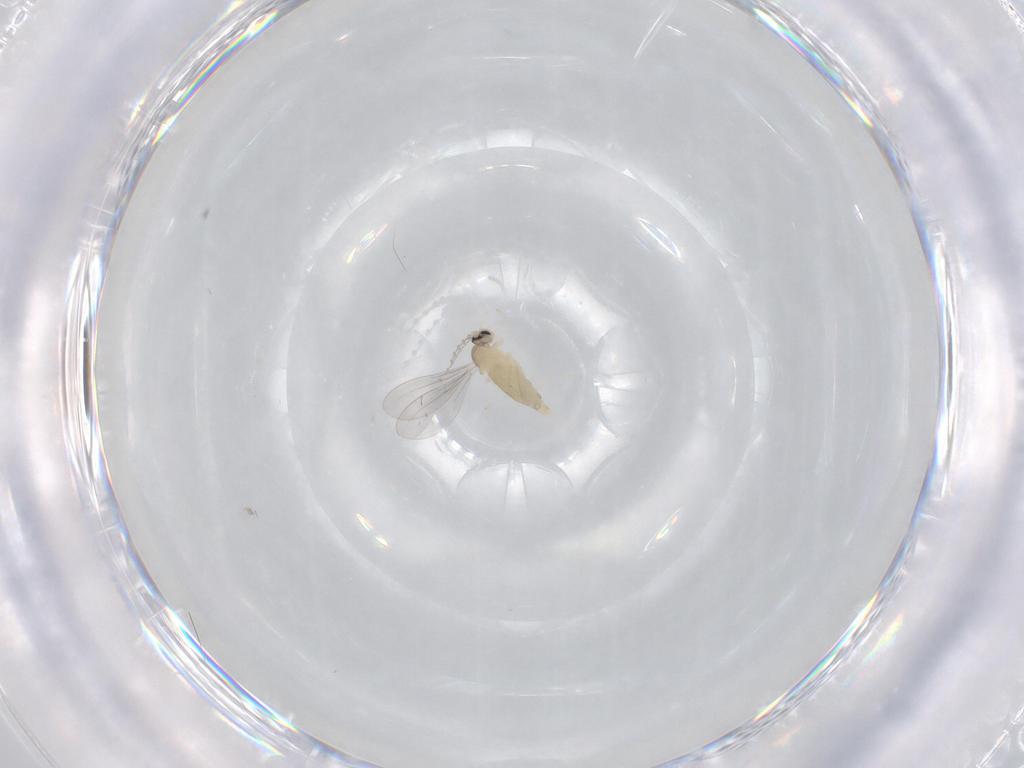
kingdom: Animalia
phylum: Arthropoda
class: Insecta
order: Diptera
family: Cecidomyiidae
